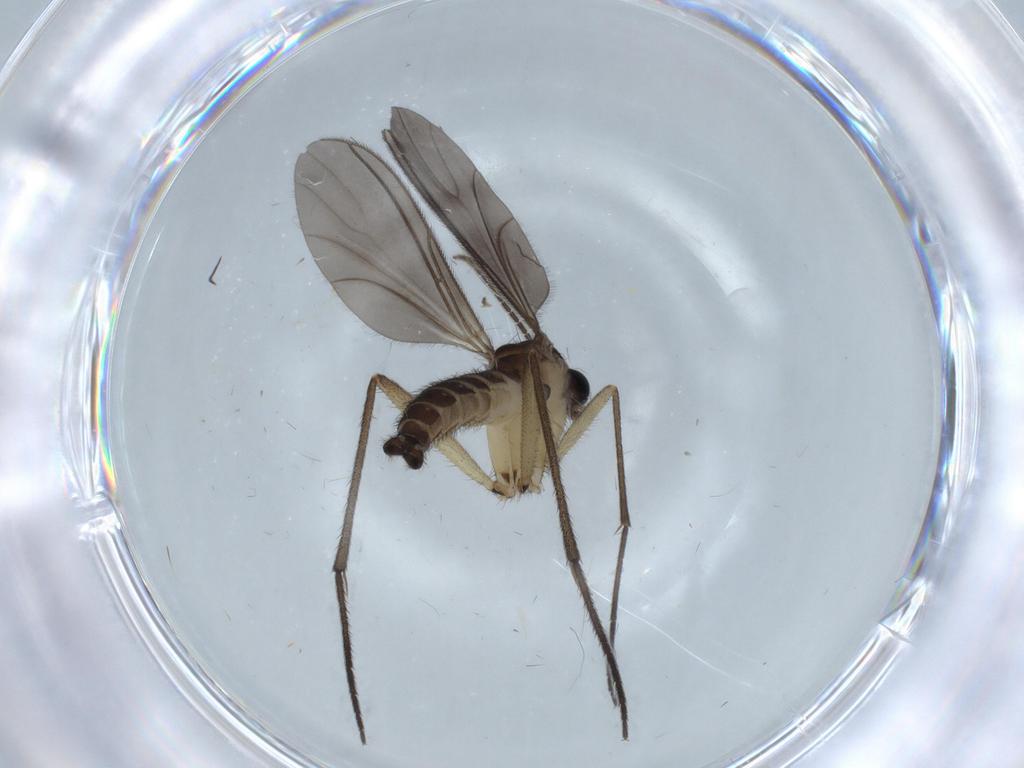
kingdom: Animalia
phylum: Arthropoda
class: Insecta
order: Diptera
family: Sciaridae
